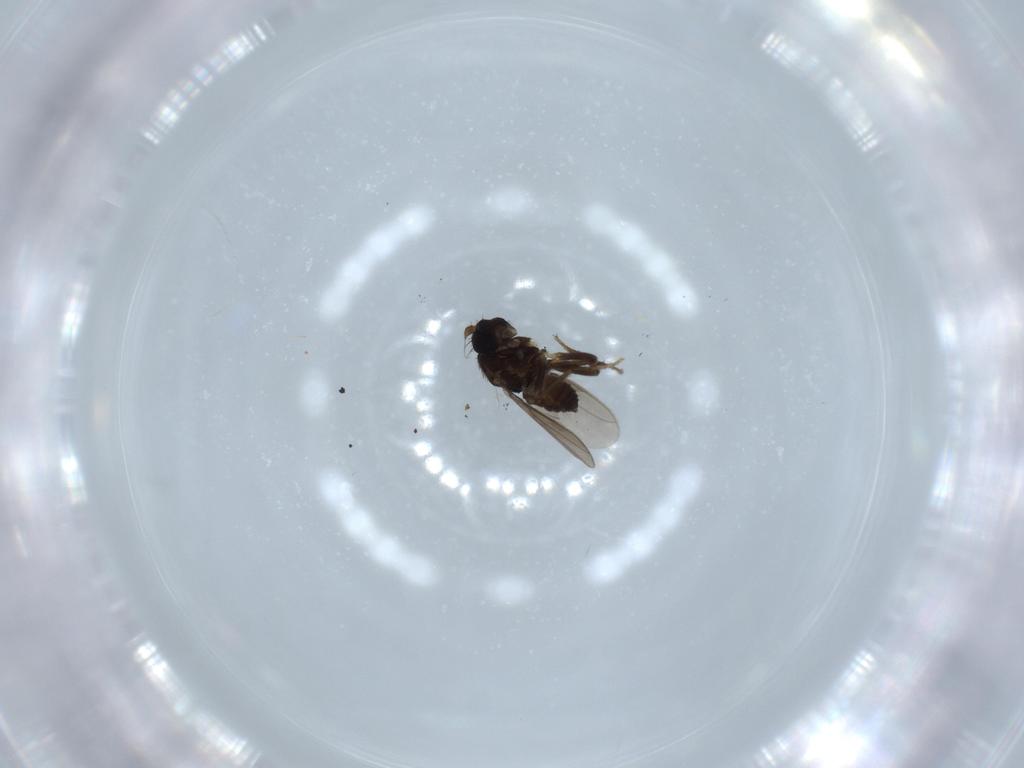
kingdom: Animalia
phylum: Arthropoda
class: Insecta
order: Diptera
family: Sphaeroceridae
